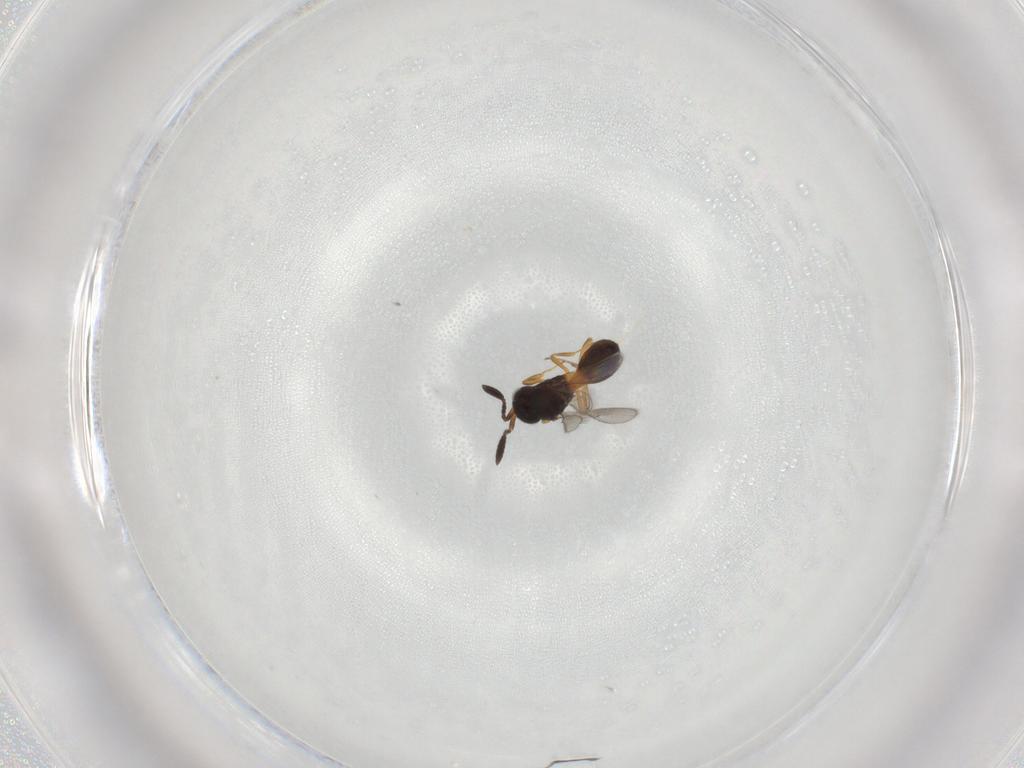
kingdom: Animalia
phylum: Arthropoda
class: Insecta
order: Hymenoptera
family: Scelionidae
